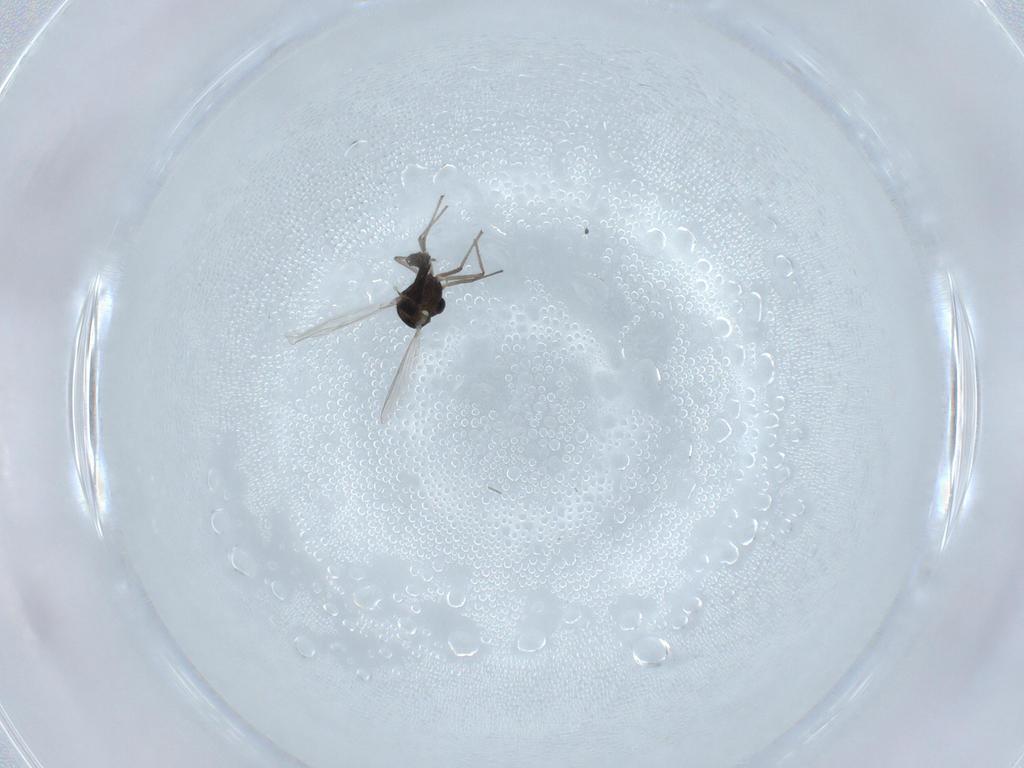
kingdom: Animalia
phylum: Arthropoda
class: Insecta
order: Diptera
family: Chironomidae
